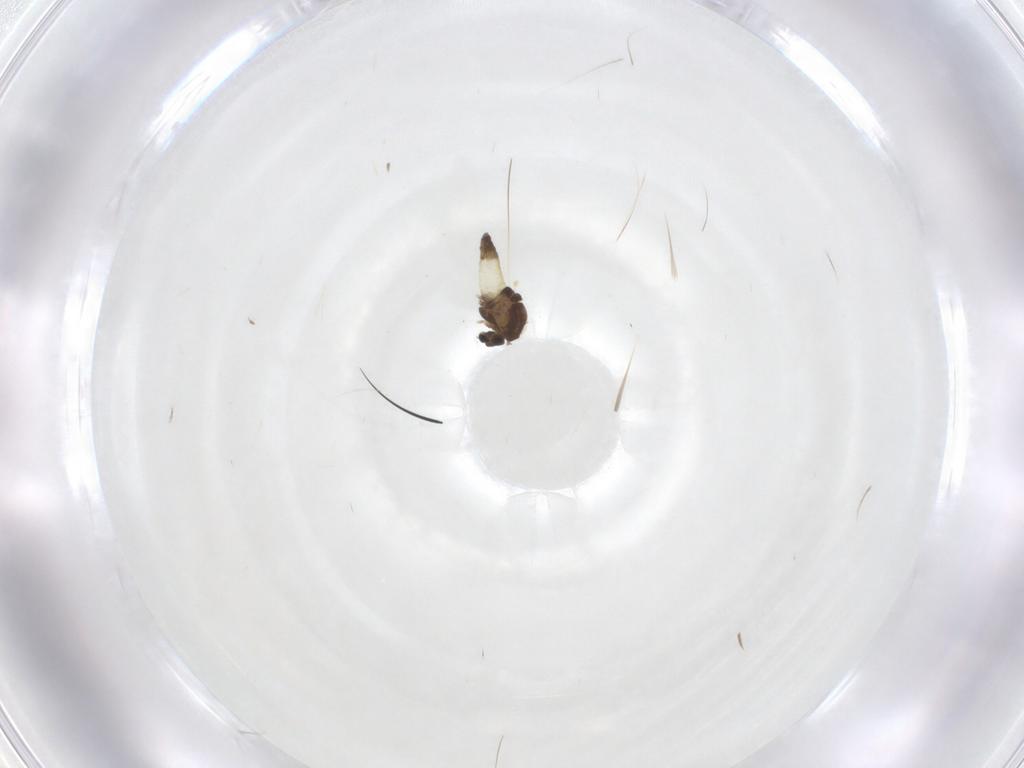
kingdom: Animalia
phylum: Arthropoda
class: Insecta
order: Diptera
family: Chironomidae
